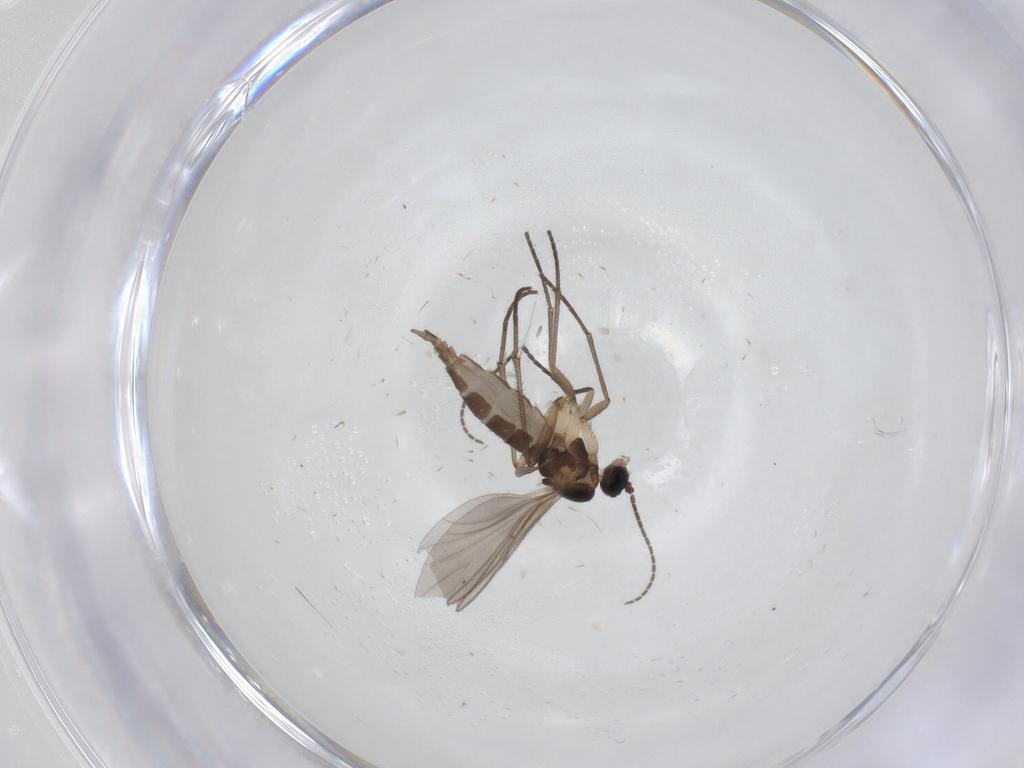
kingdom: Animalia
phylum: Arthropoda
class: Insecta
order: Diptera
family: Sciaridae
